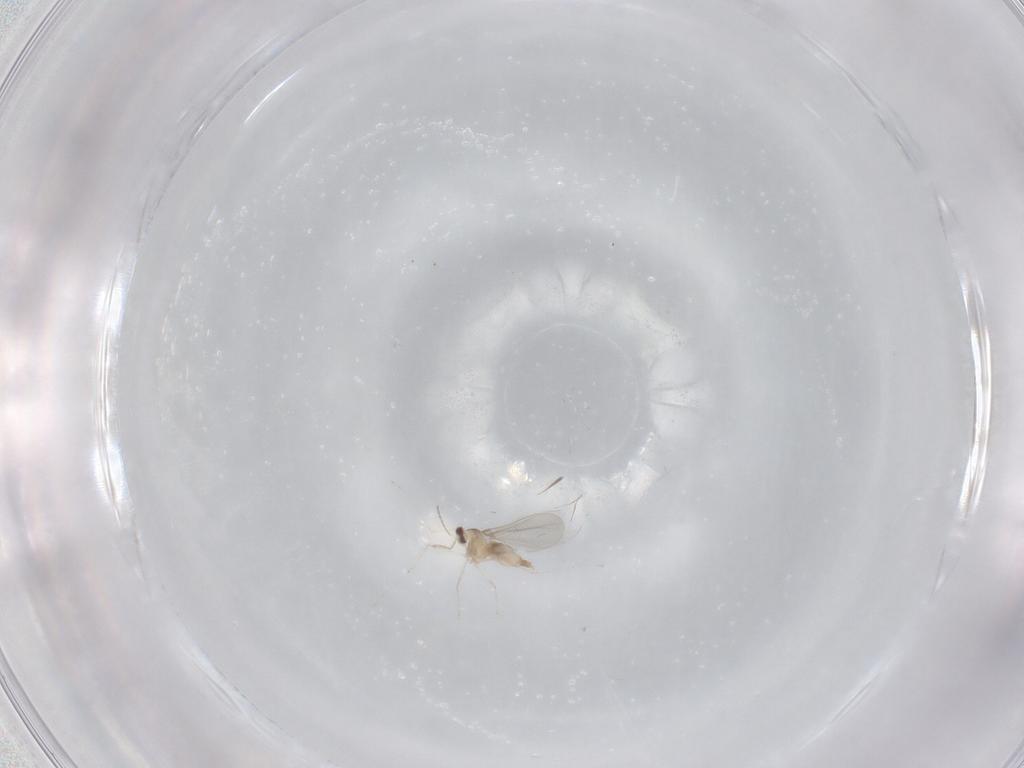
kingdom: Animalia
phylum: Arthropoda
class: Insecta
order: Diptera
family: Cecidomyiidae
